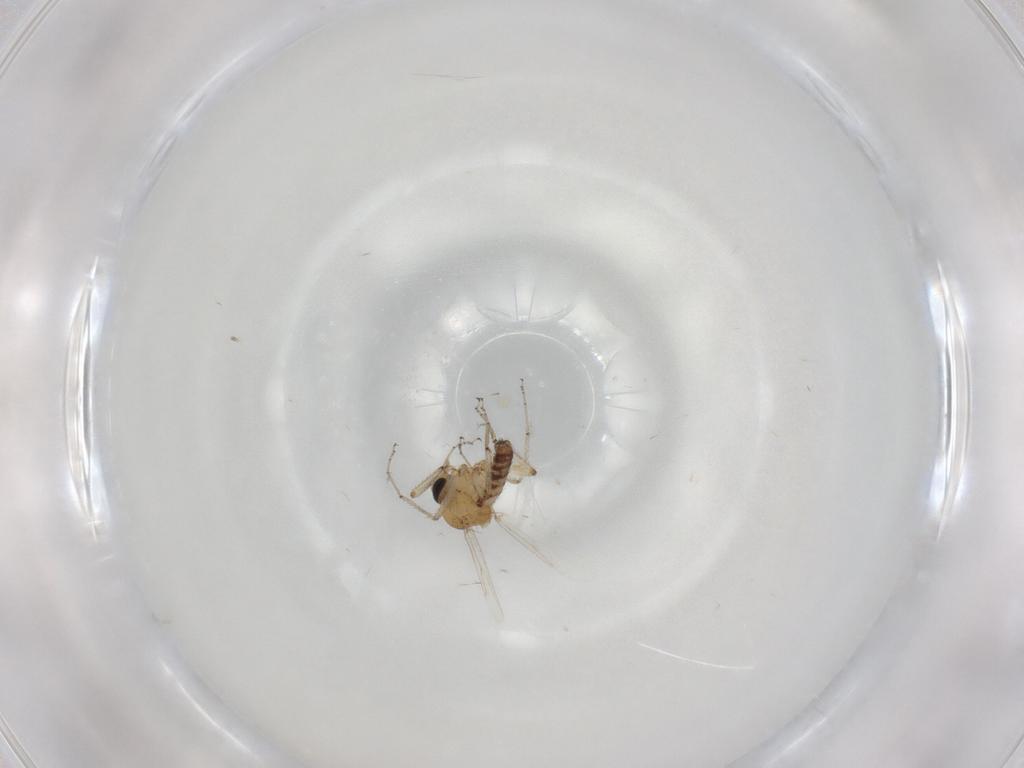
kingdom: Animalia
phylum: Arthropoda
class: Insecta
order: Diptera
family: Ceratopogonidae
